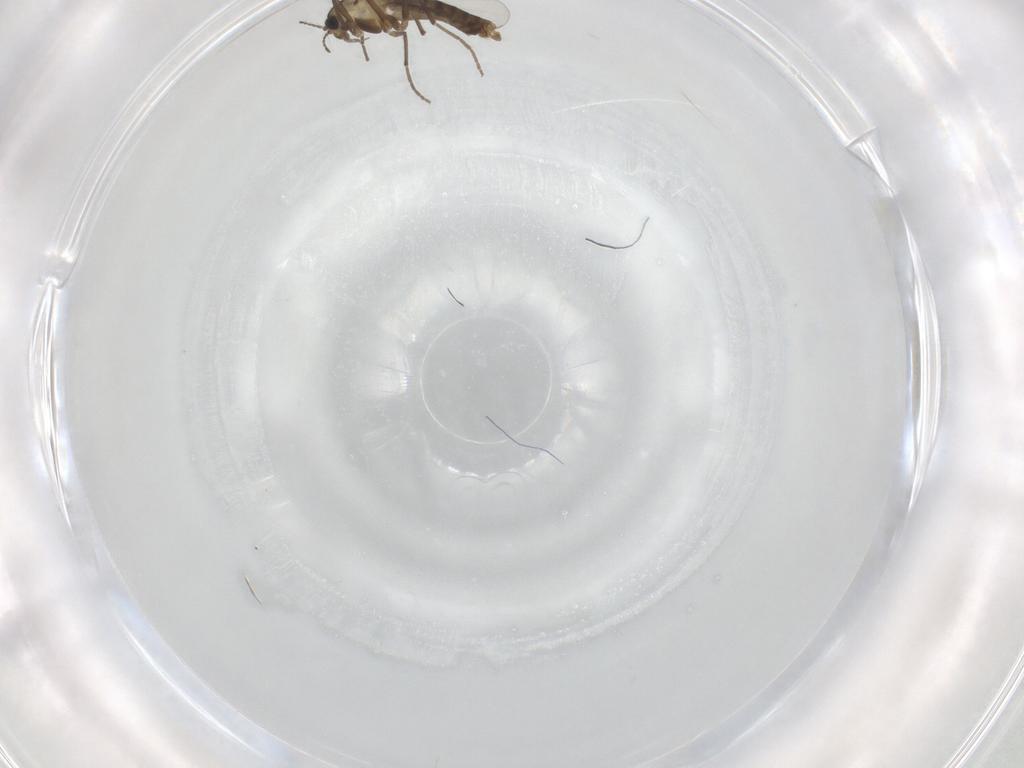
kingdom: Animalia
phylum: Arthropoda
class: Insecta
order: Diptera
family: Chironomidae
